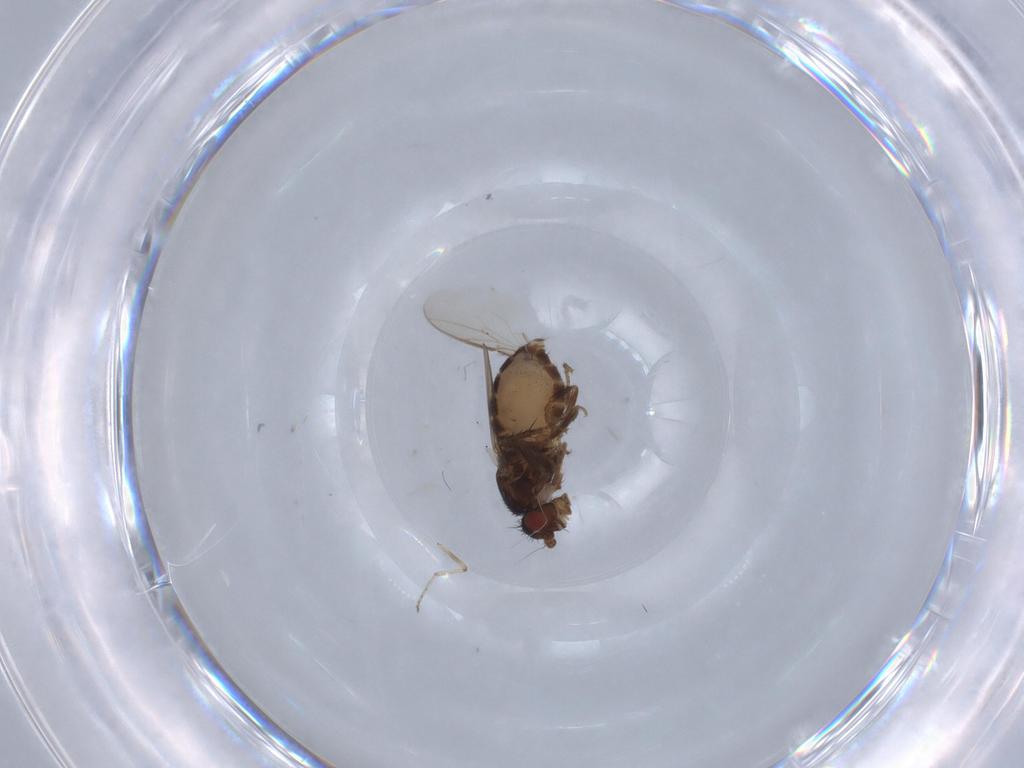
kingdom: Animalia
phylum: Arthropoda
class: Insecta
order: Diptera
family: Sphaeroceridae
